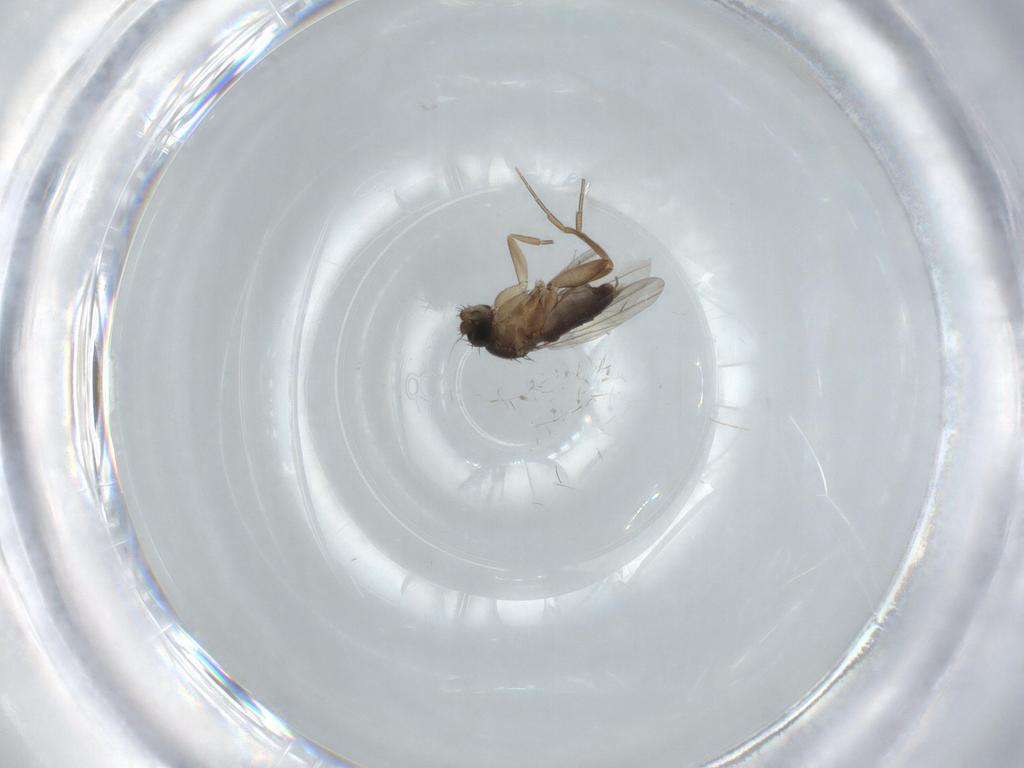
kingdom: Animalia
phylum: Arthropoda
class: Insecta
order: Diptera
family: Phoridae
